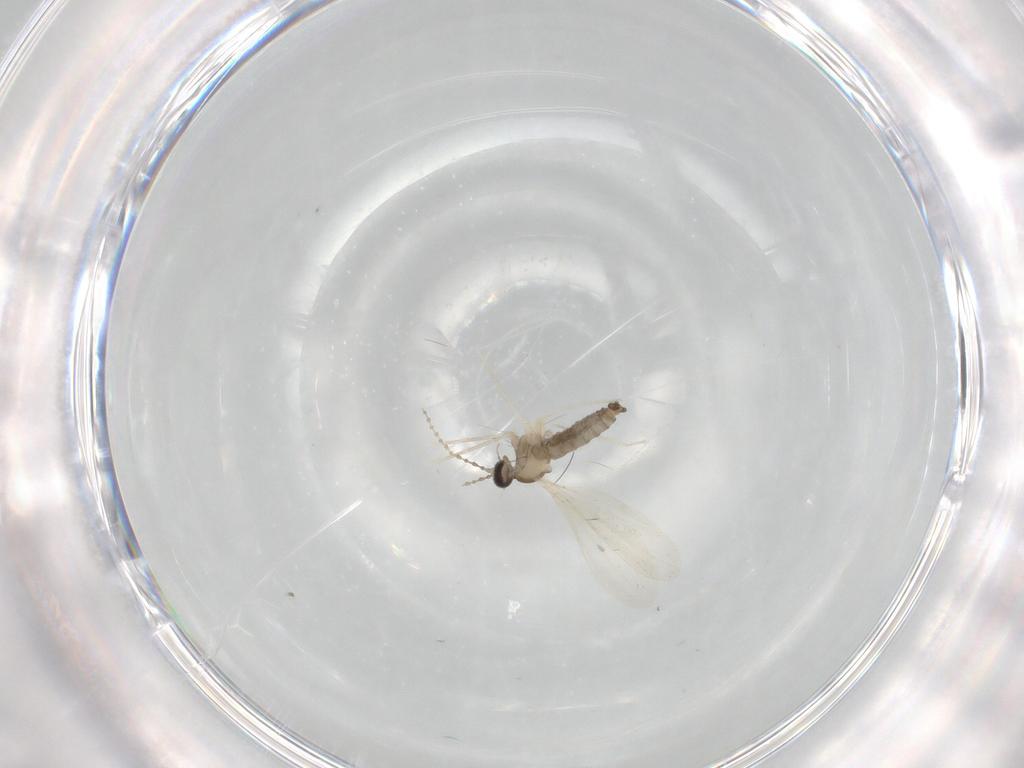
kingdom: Animalia
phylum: Arthropoda
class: Insecta
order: Diptera
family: Cecidomyiidae
